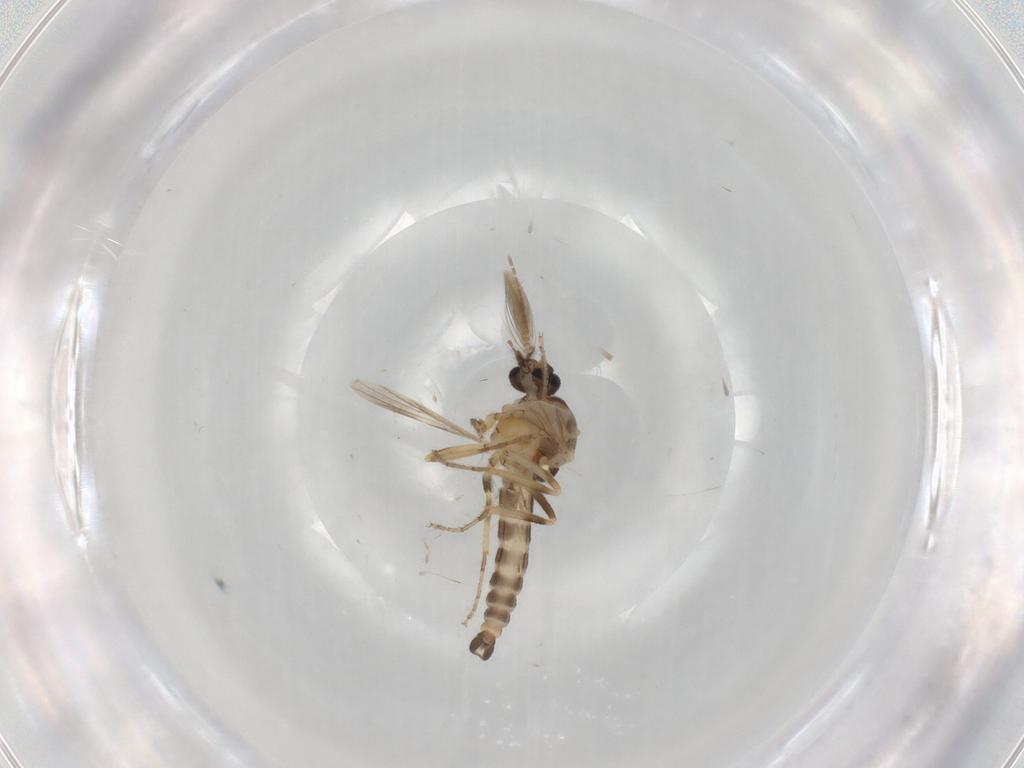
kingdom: Animalia
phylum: Arthropoda
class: Insecta
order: Diptera
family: Ceratopogonidae
